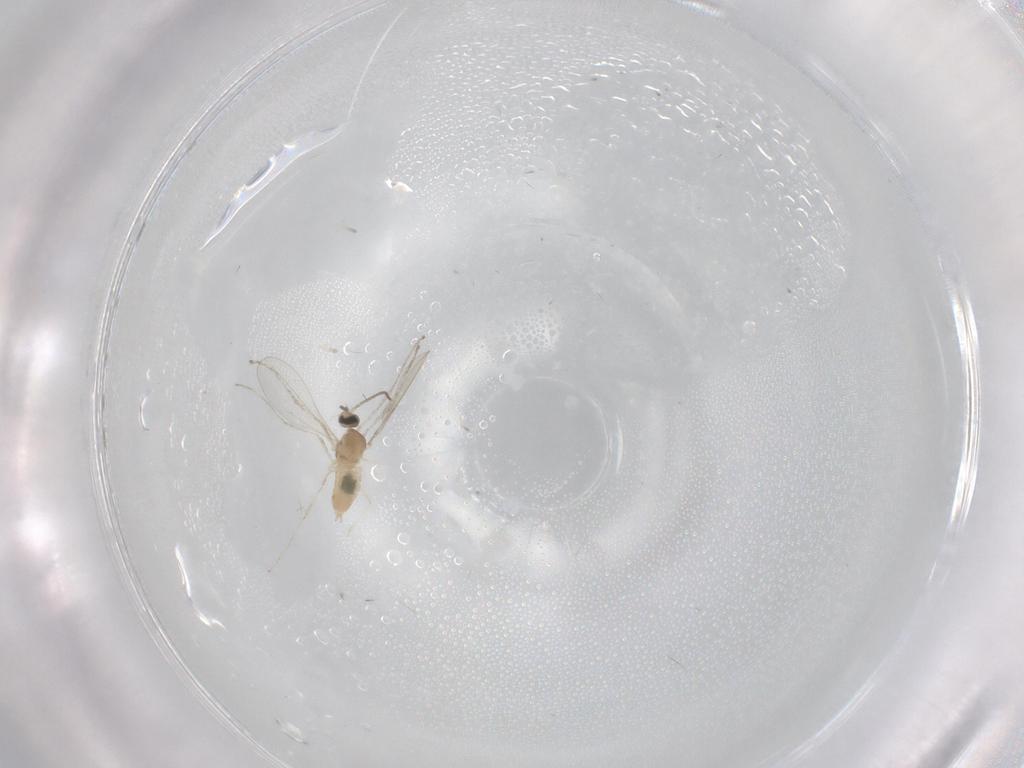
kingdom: Animalia
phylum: Arthropoda
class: Insecta
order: Diptera
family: Cecidomyiidae
